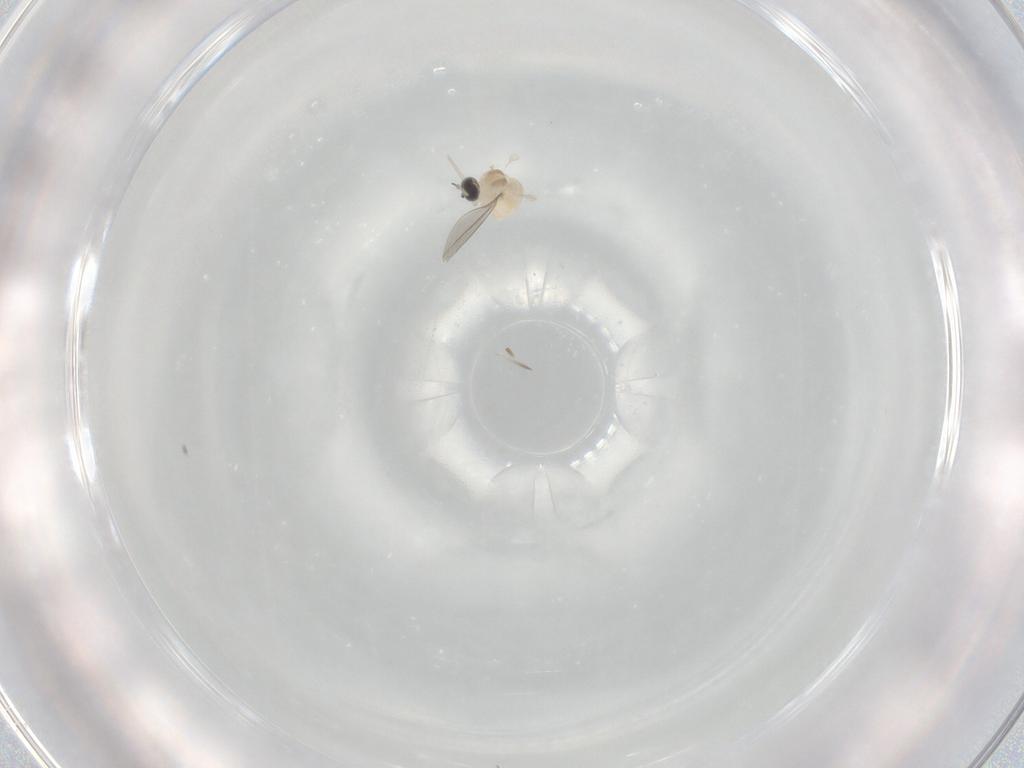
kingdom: Animalia
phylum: Arthropoda
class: Insecta
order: Diptera
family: Cecidomyiidae
